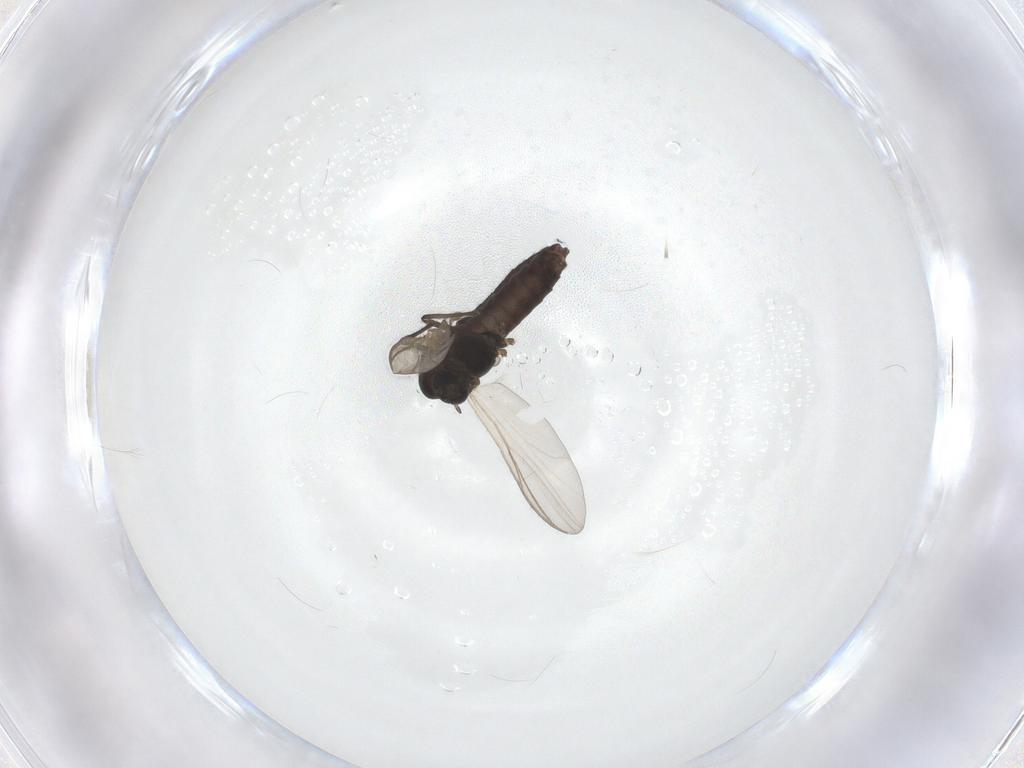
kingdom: Animalia
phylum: Arthropoda
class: Insecta
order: Diptera
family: Chironomidae
